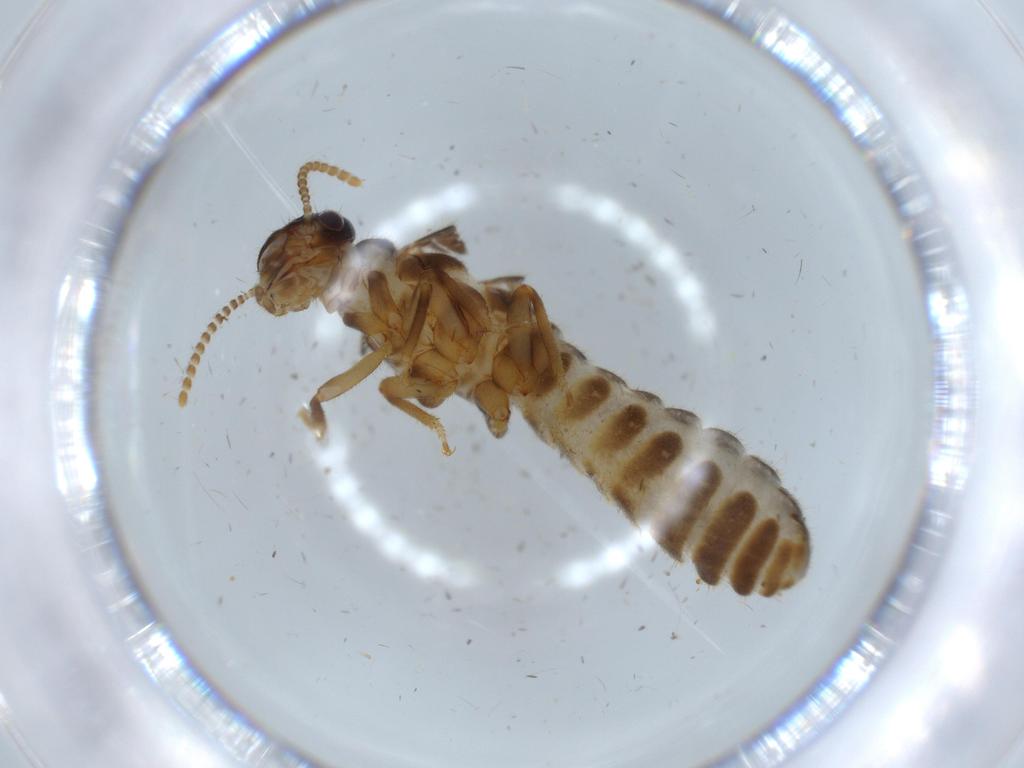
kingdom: Animalia
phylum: Arthropoda
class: Insecta
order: Blattodea
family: Ectobiidae
